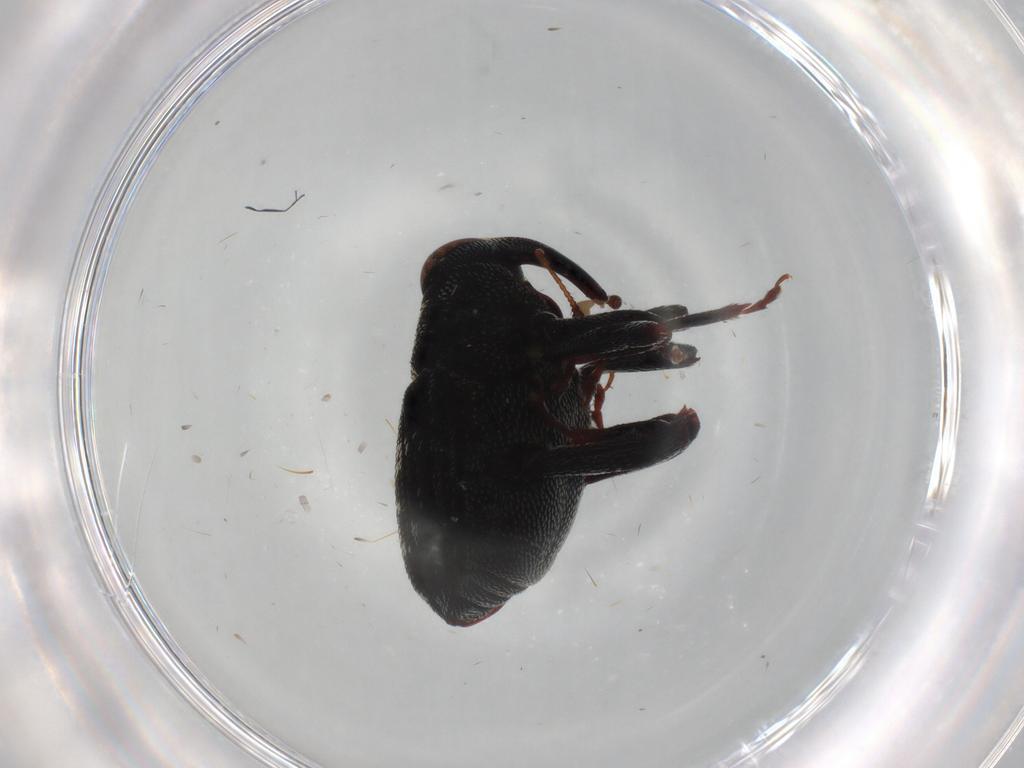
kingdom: Animalia
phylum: Arthropoda
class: Insecta
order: Coleoptera
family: Curculionidae
